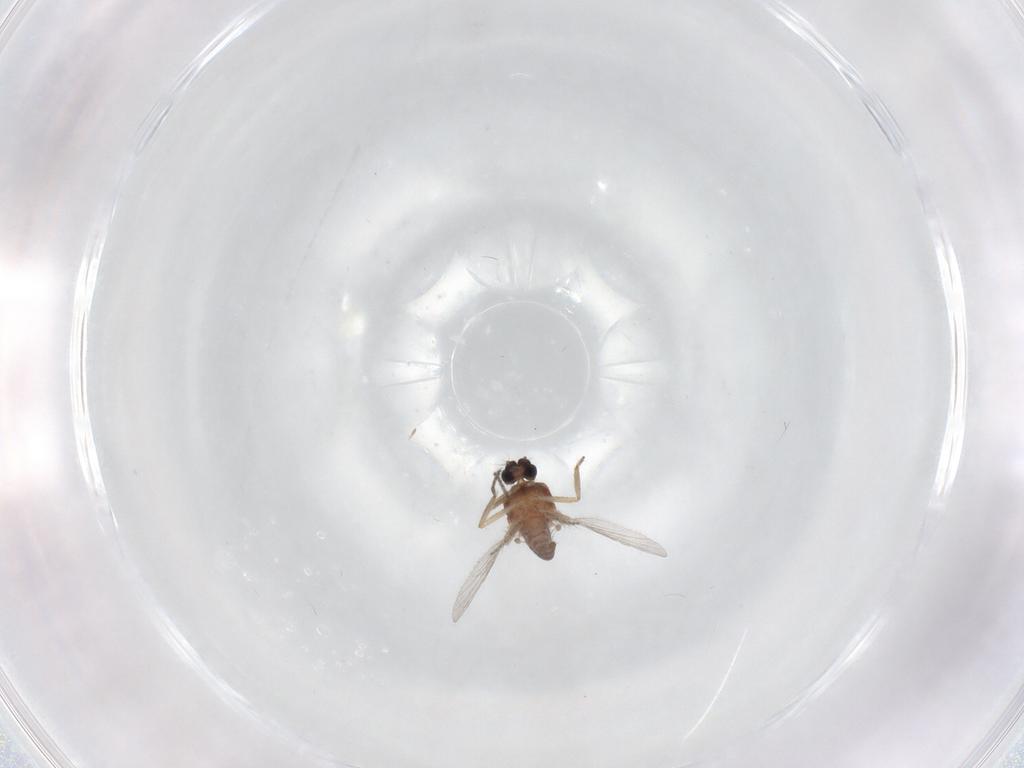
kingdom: Animalia
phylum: Arthropoda
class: Insecta
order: Diptera
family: Ceratopogonidae
